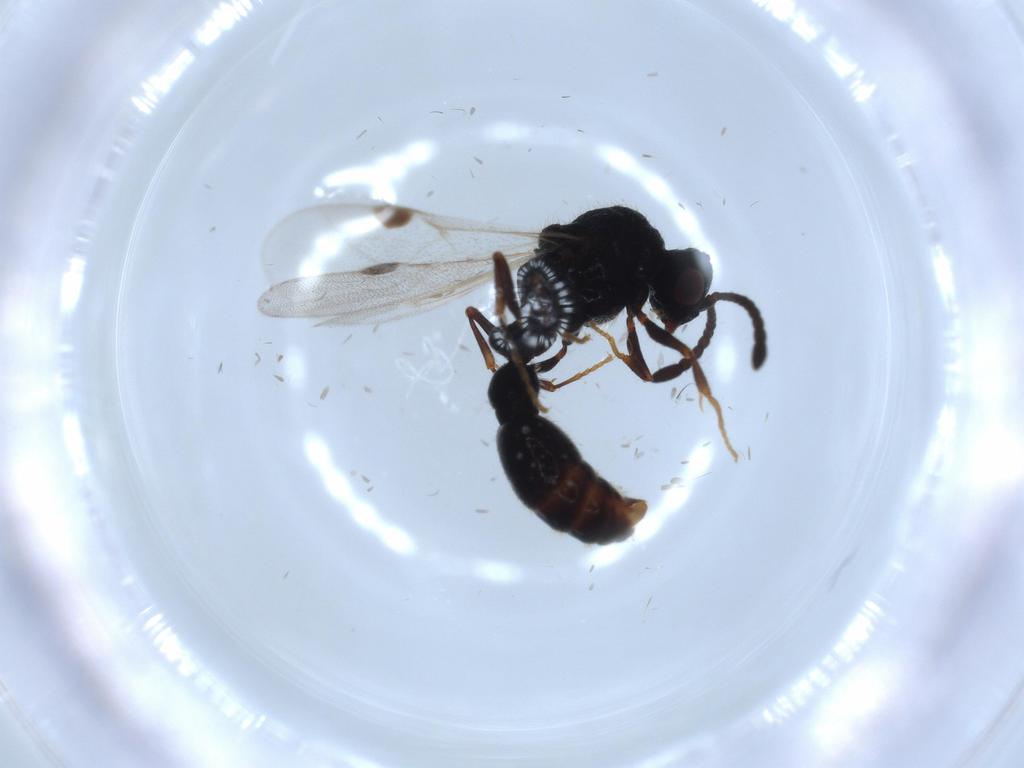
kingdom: Animalia
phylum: Arthropoda
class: Insecta
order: Hymenoptera
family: Formicidae
